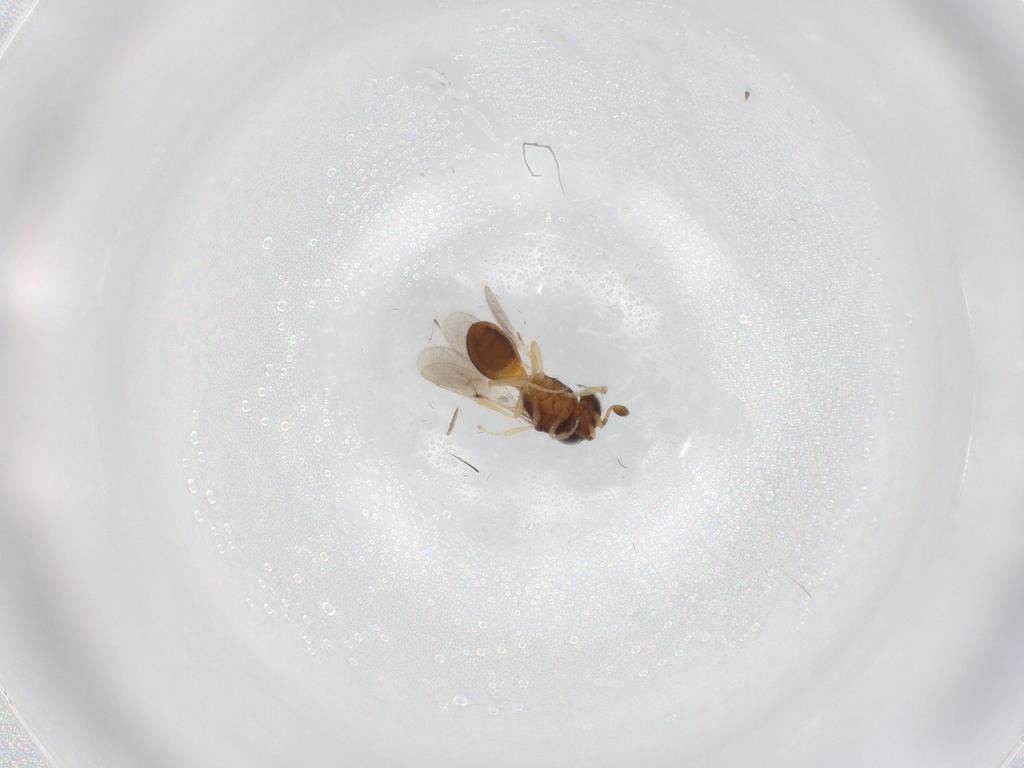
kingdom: Animalia
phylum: Arthropoda
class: Insecta
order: Hymenoptera
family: Scelionidae
